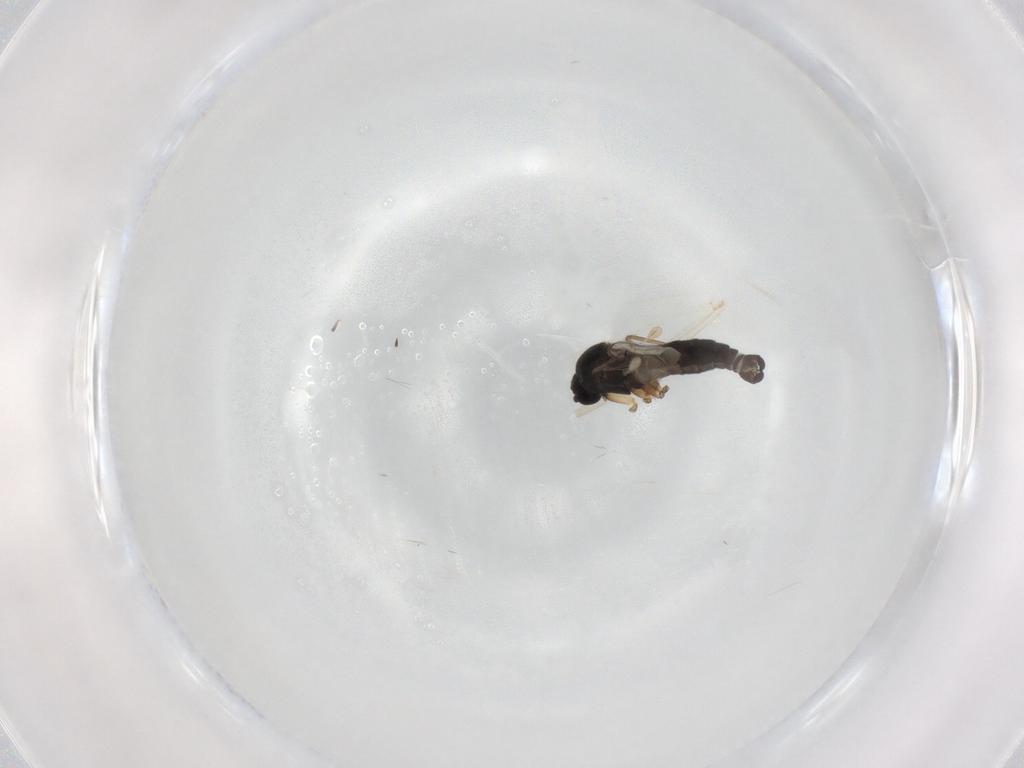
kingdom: Animalia
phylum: Arthropoda
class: Insecta
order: Diptera
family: Sciaridae
